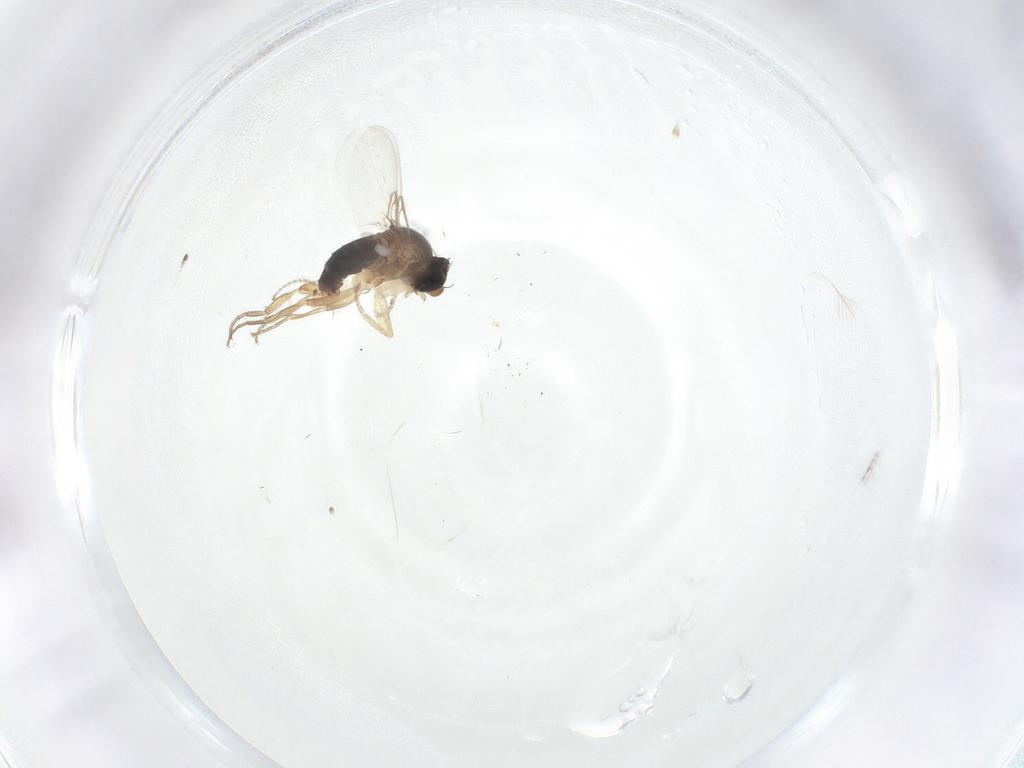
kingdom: Animalia
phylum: Arthropoda
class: Insecta
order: Diptera
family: Ceratopogonidae
